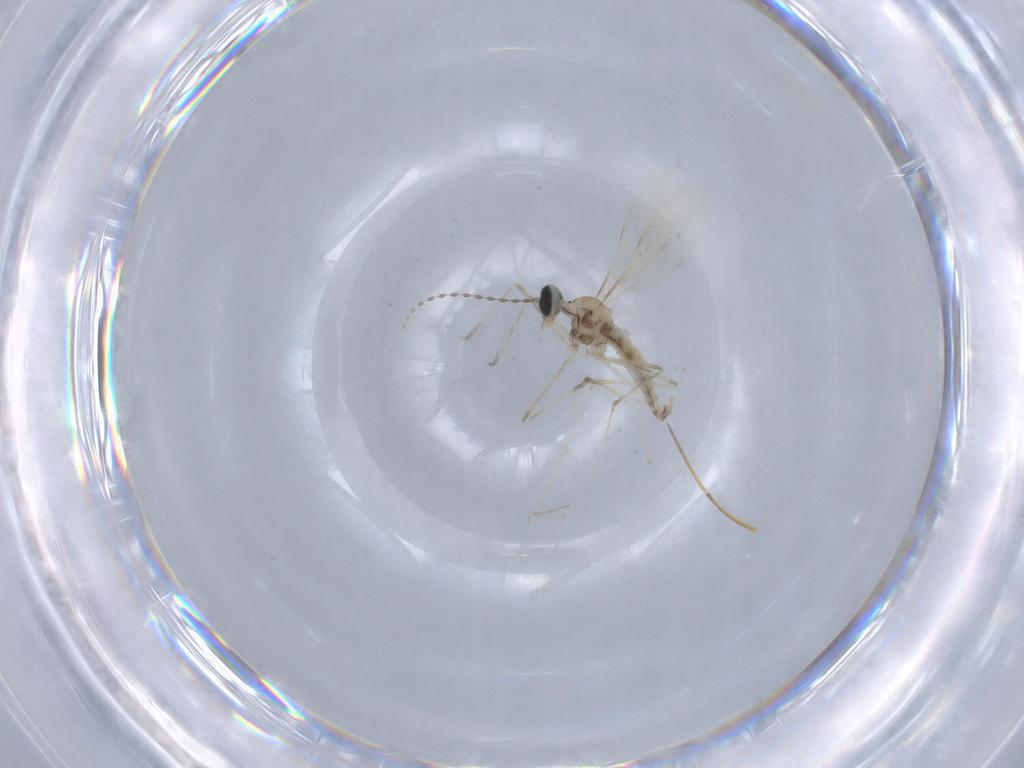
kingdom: Animalia
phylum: Arthropoda
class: Insecta
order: Diptera
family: Cecidomyiidae
